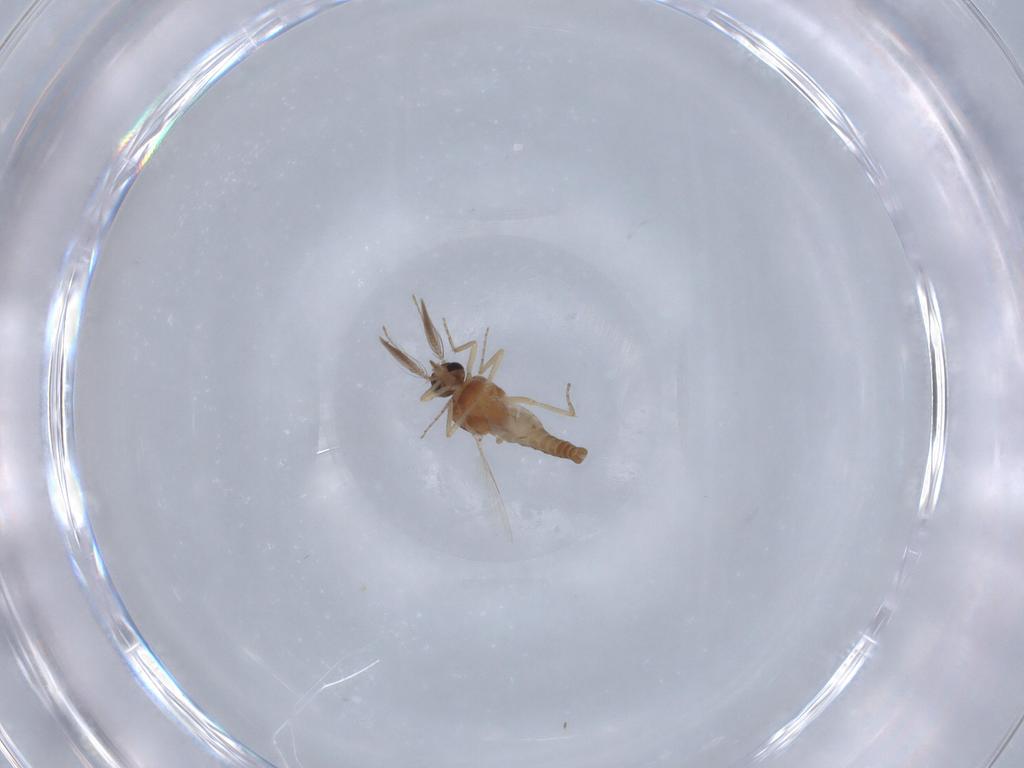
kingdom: Animalia
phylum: Arthropoda
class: Insecta
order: Diptera
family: Ceratopogonidae
